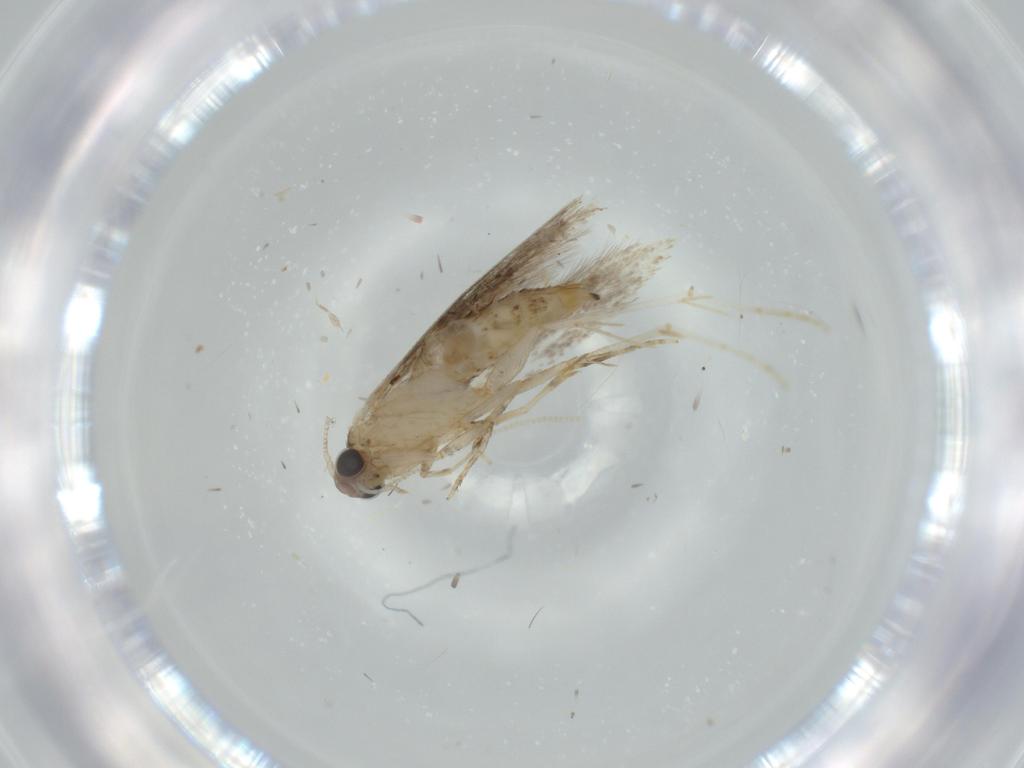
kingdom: Animalia
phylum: Arthropoda
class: Insecta
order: Lepidoptera
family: Tineidae
